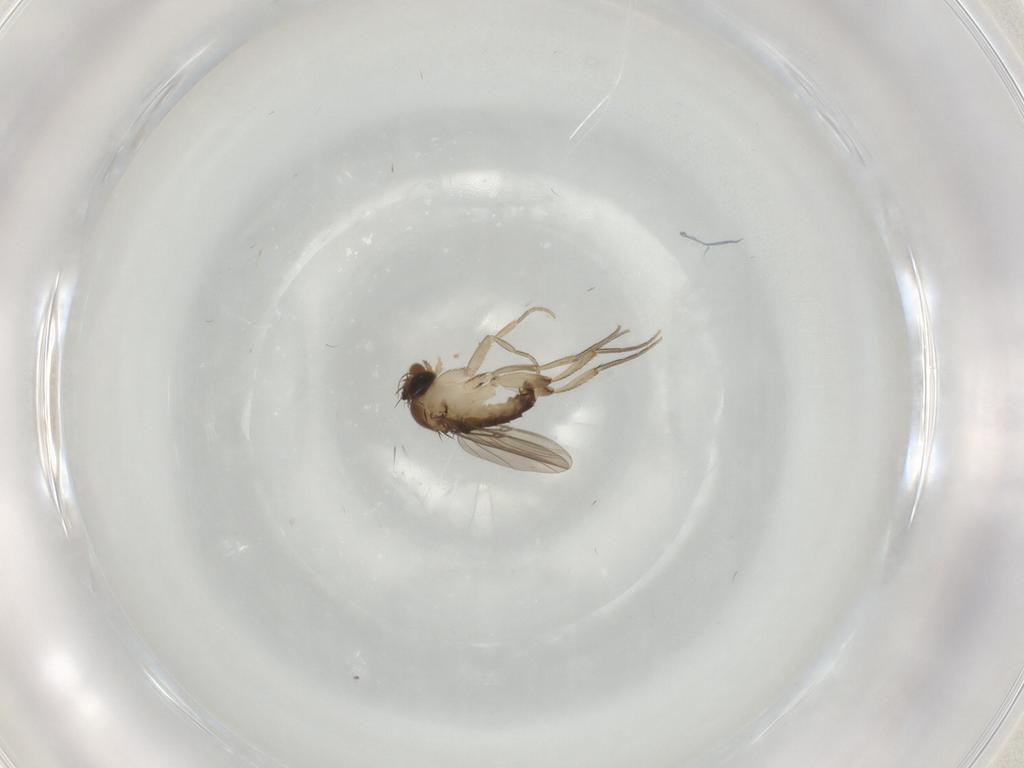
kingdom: Animalia
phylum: Arthropoda
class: Insecta
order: Diptera
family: Phoridae
